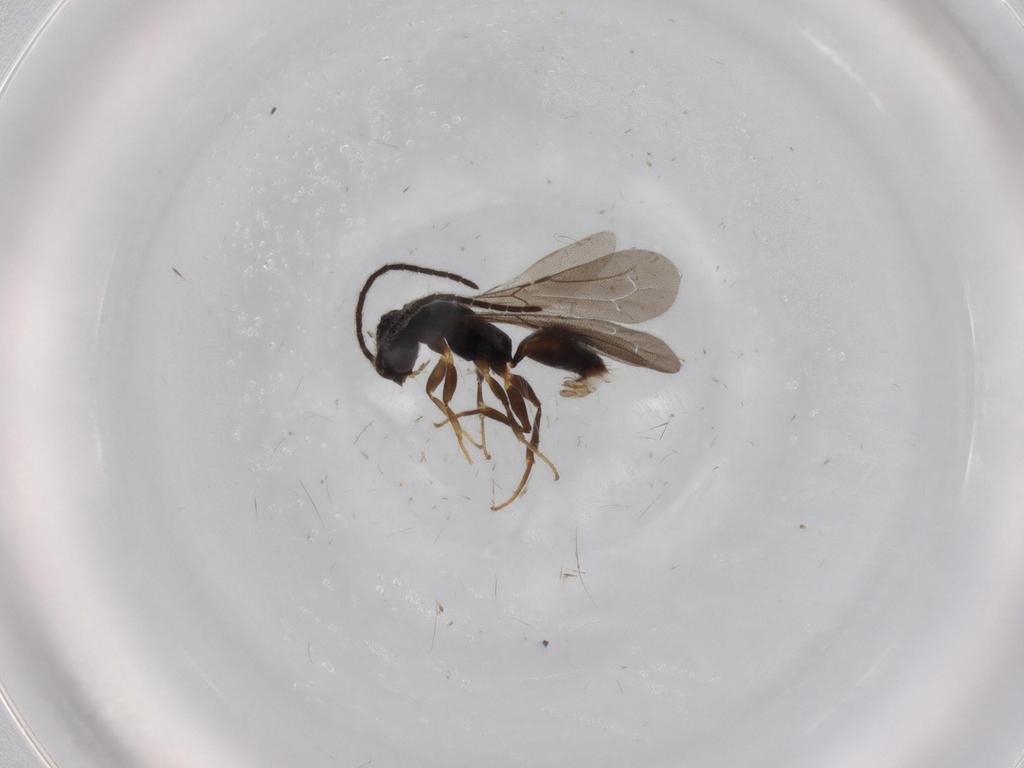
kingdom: Animalia
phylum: Arthropoda
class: Insecta
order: Hymenoptera
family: Bethylidae
